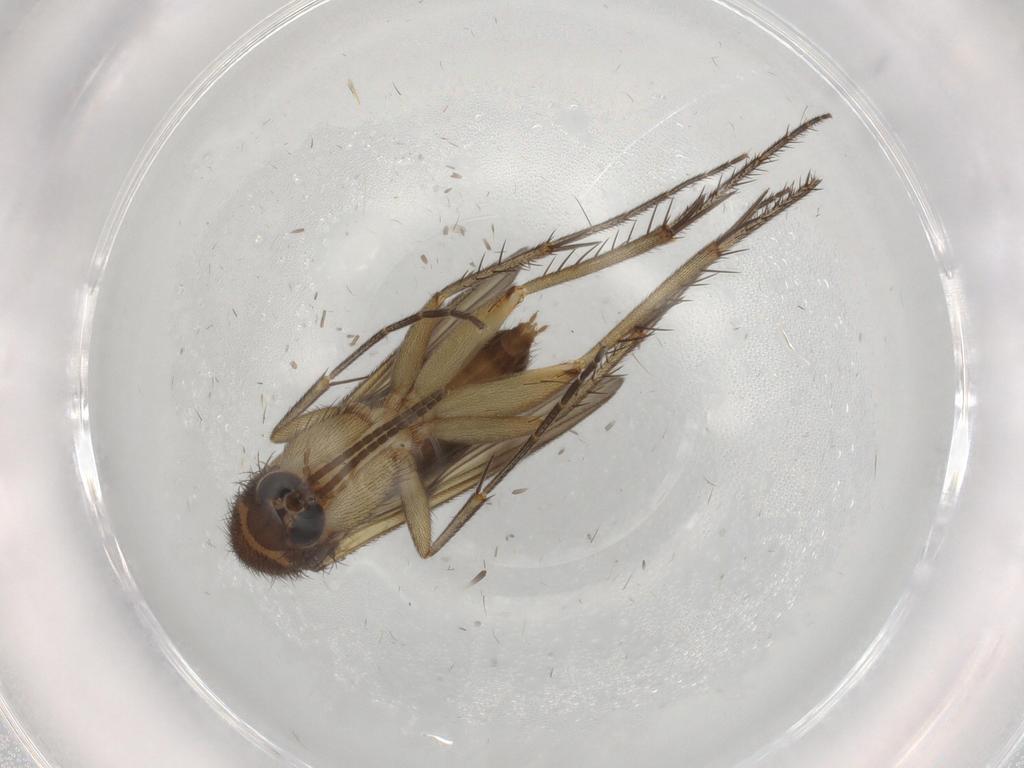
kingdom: Animalia
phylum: Arthropoda
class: Insecta
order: Diptera
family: Mycetophilidae
